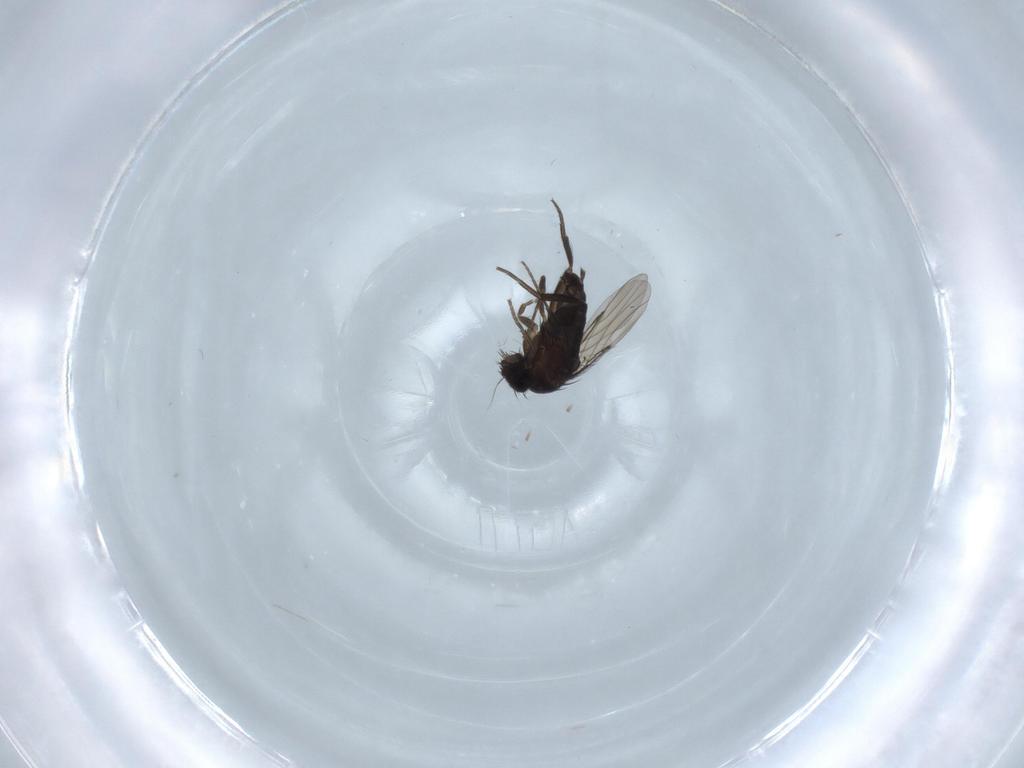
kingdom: Animalia
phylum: Arthropoda
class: Insecta
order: Diptera
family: Phoridae
